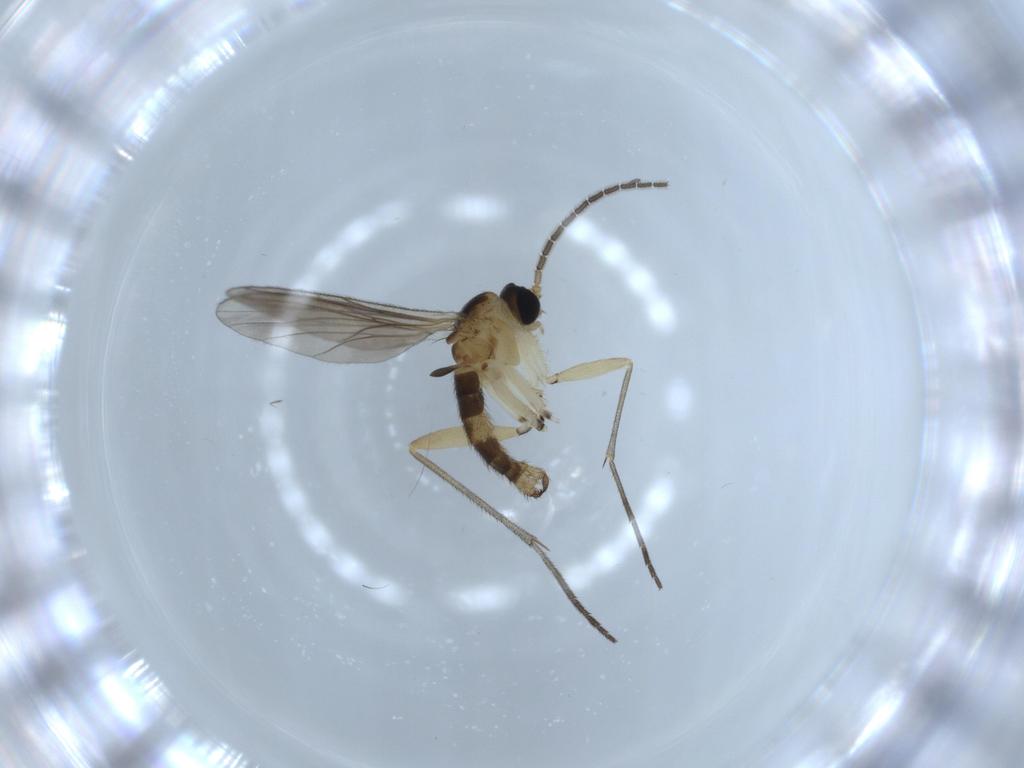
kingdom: Animalia
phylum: Arthropoda
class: Insecta
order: Diptera
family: Sciaridae
